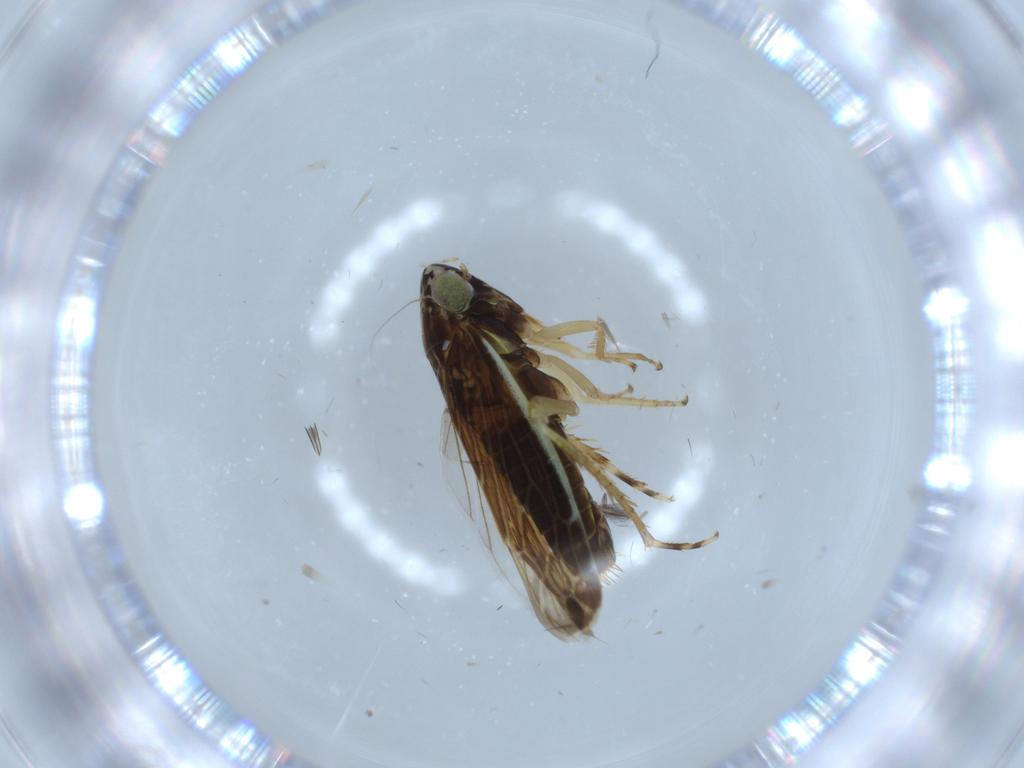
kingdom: Animalia
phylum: Arthropoda
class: Insecta
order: Hemiptera
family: Cicadellidae
